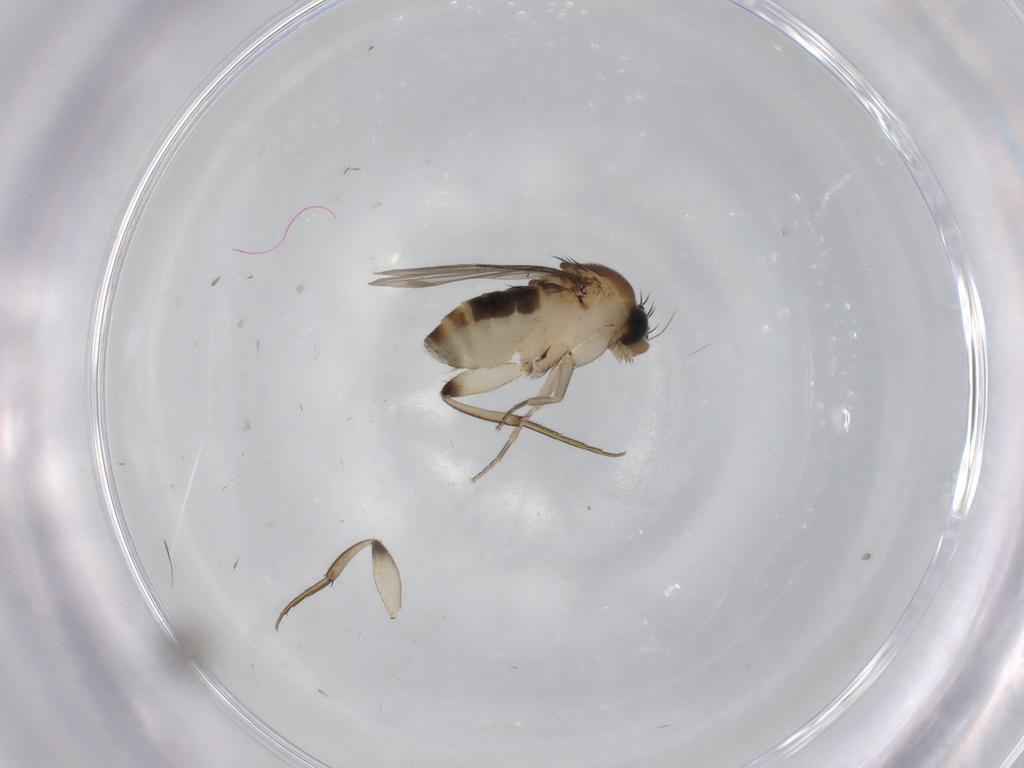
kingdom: Animalia
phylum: Arthropoda
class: Insecta
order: Diptera
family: Phoridae
